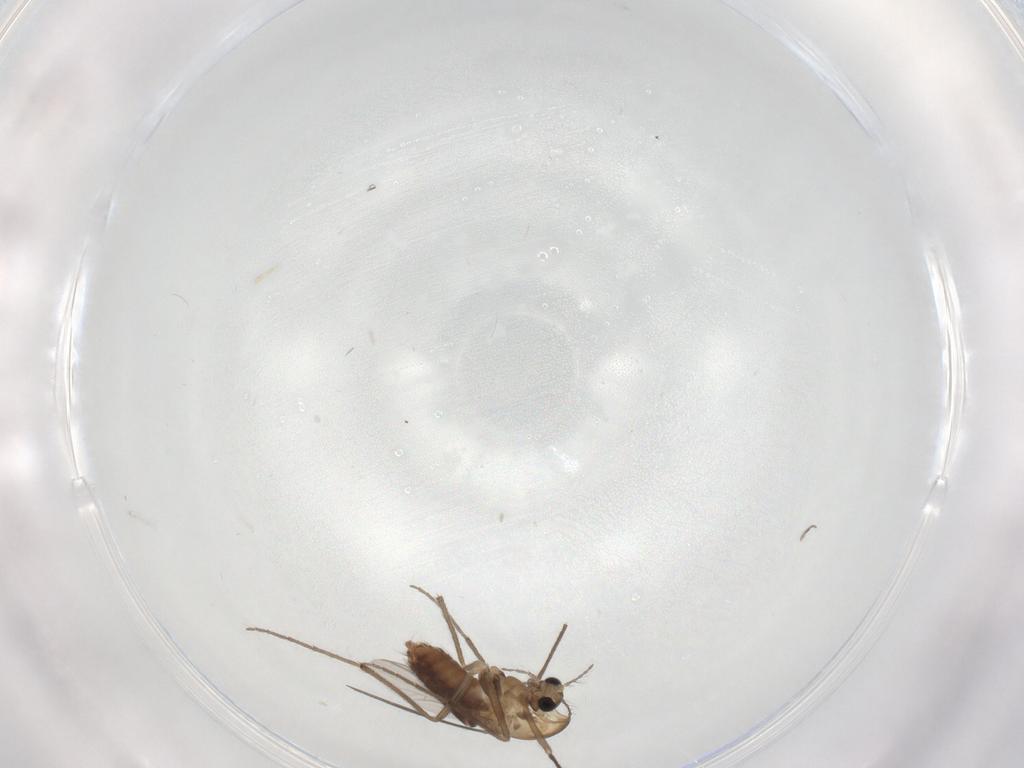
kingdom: Animalia
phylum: Arthropoda
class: Insecta
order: Diptera
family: Chironomidae
